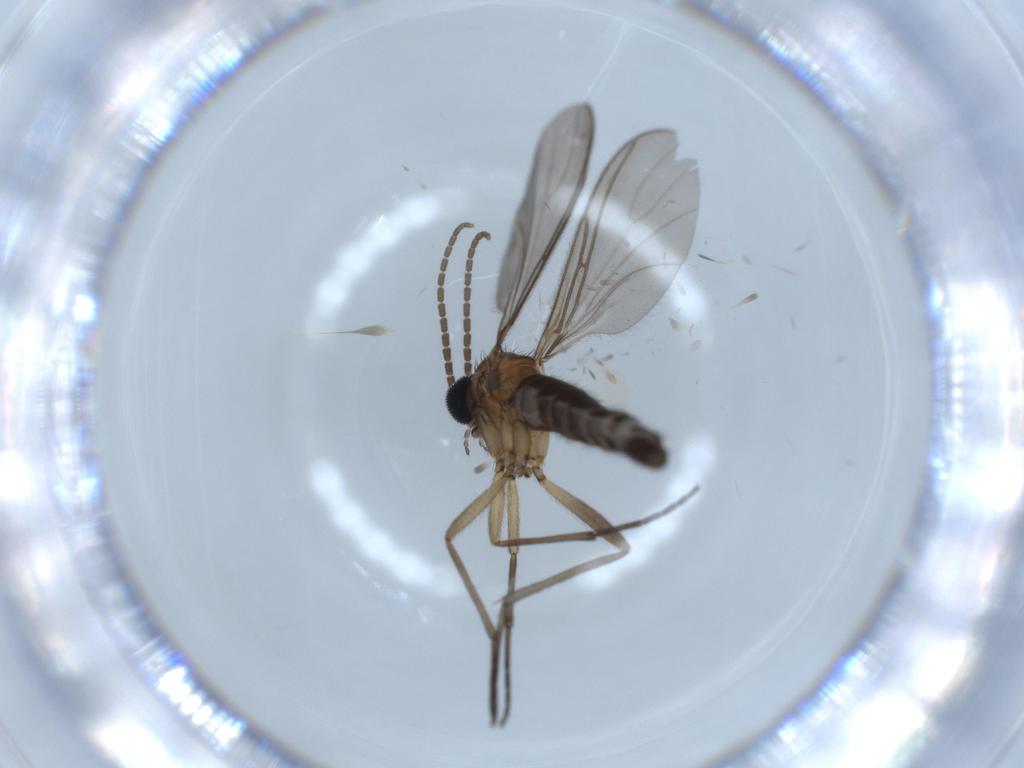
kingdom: Animalia
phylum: Arthropoda
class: Insecta
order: Diptera
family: Sciaridae
